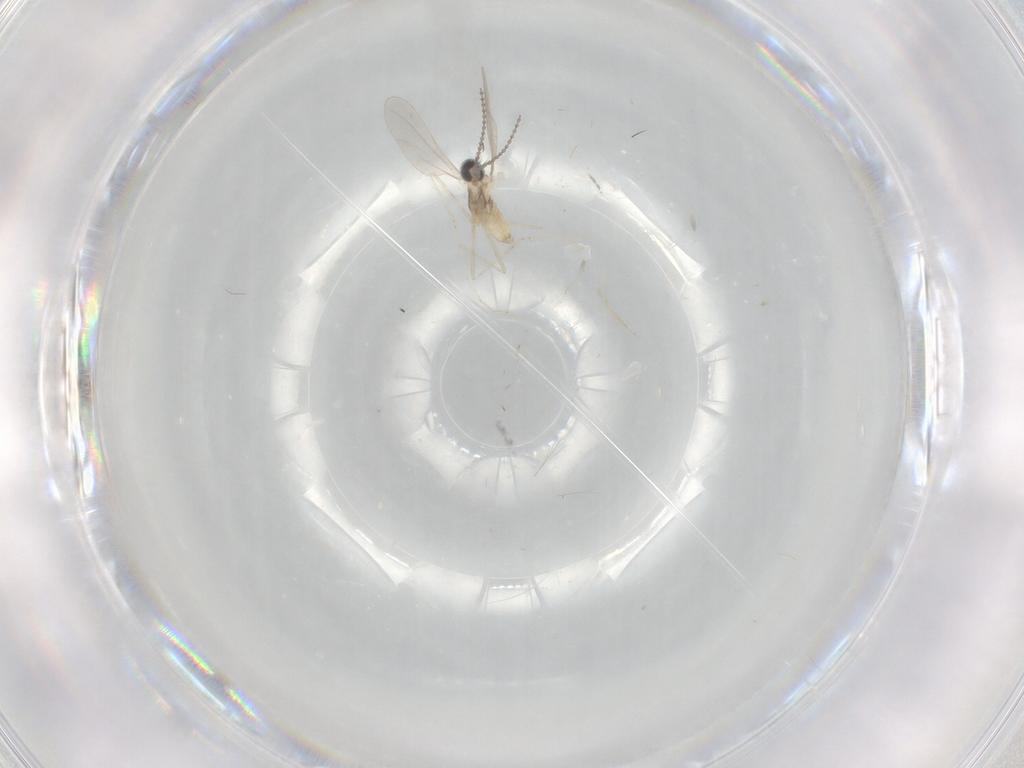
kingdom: Animalia
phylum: Arthropoda
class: Insecta
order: Diptera
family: Cecidomyiidae
